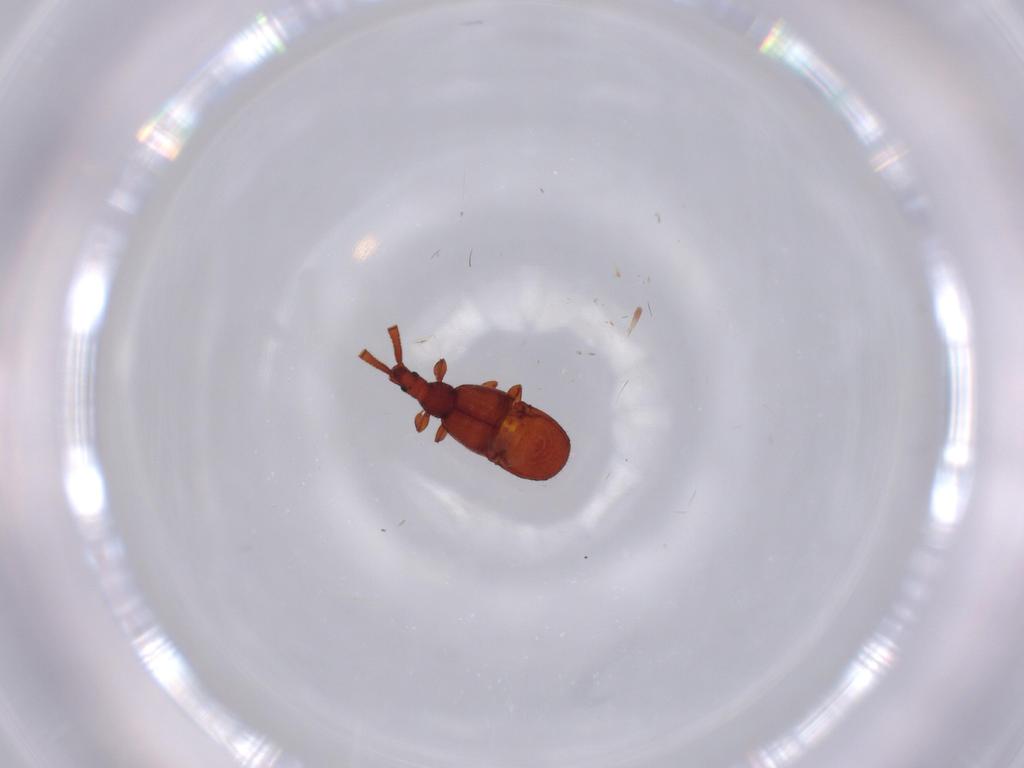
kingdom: Animalia
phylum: Arthropoda
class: Insecta
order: Coleoptera
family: Staphylinidae
